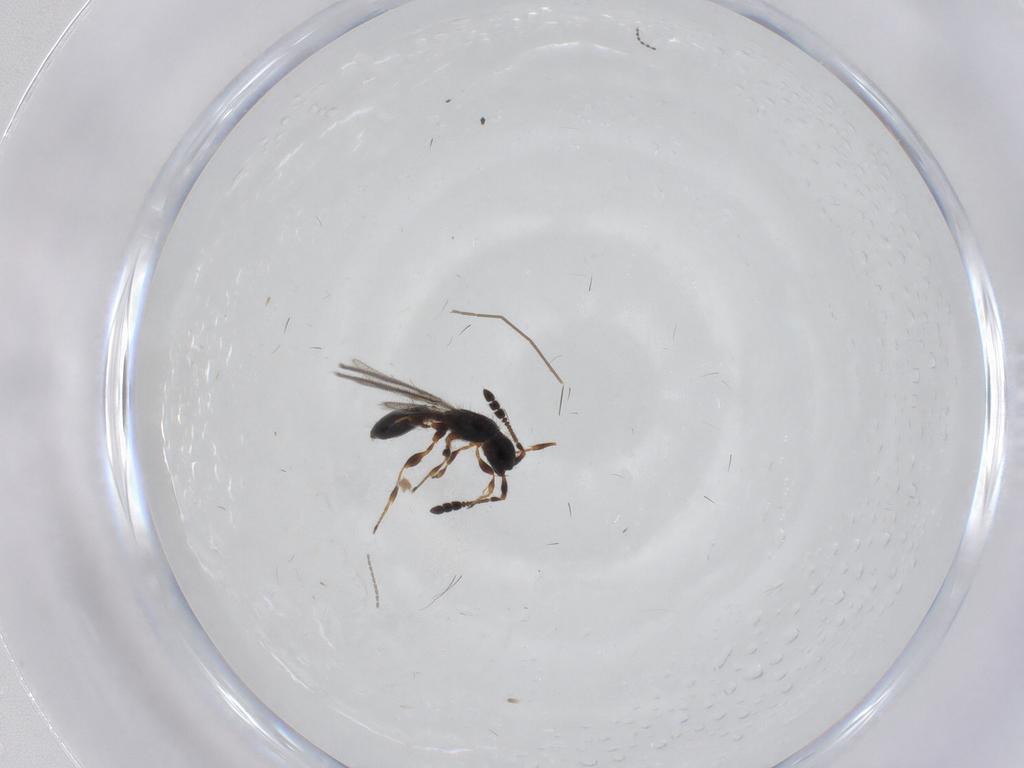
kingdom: Animalia
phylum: Arthropoda
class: Insecta
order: Hymenoptera
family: Diapriidae
